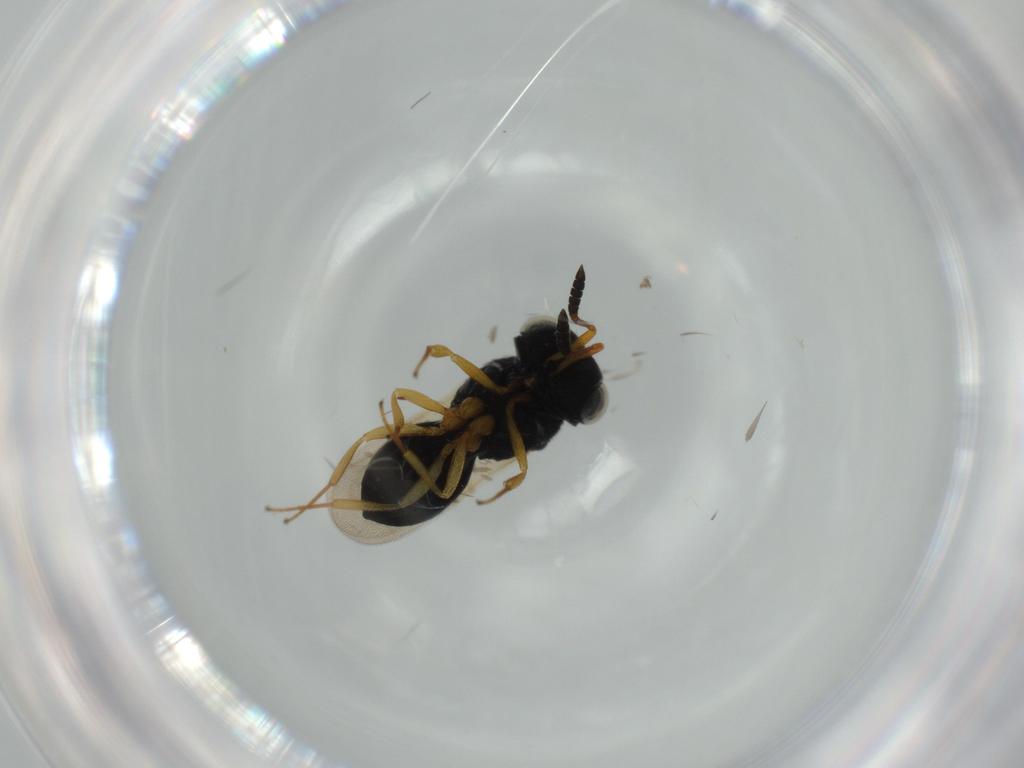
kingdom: Animalia
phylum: Arthropoda
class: Insecta
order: Hymenoptera
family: Scelionidae
